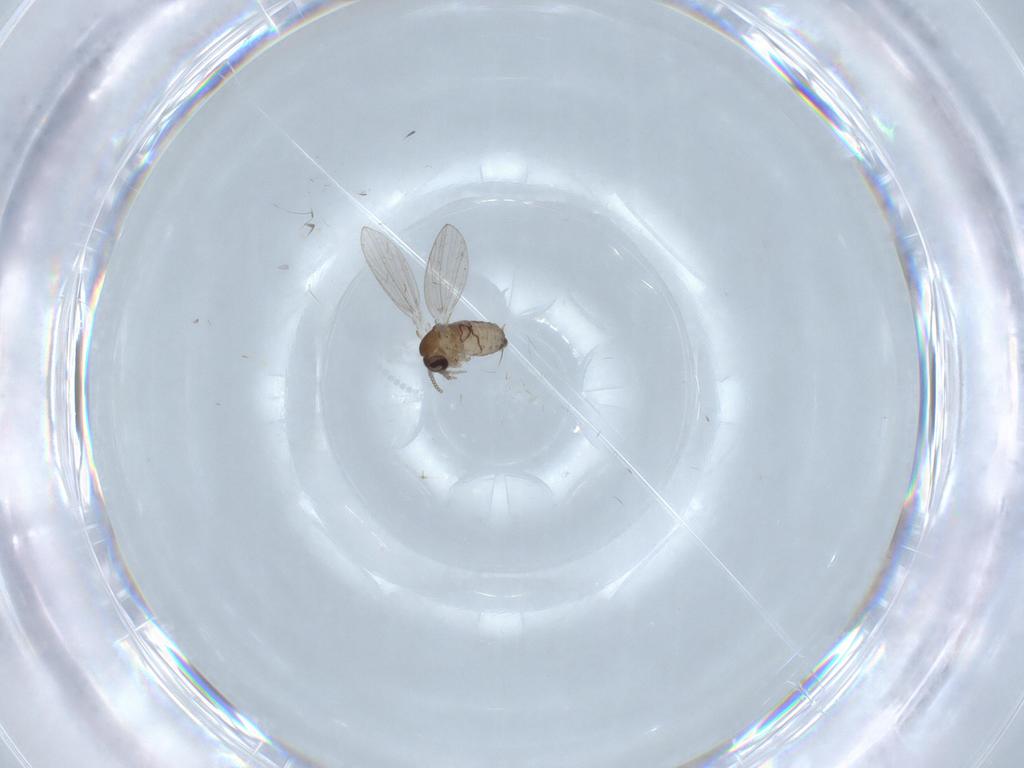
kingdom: Animalia
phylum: Arthropoda
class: Insecta
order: Diptera
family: Psychodidae
